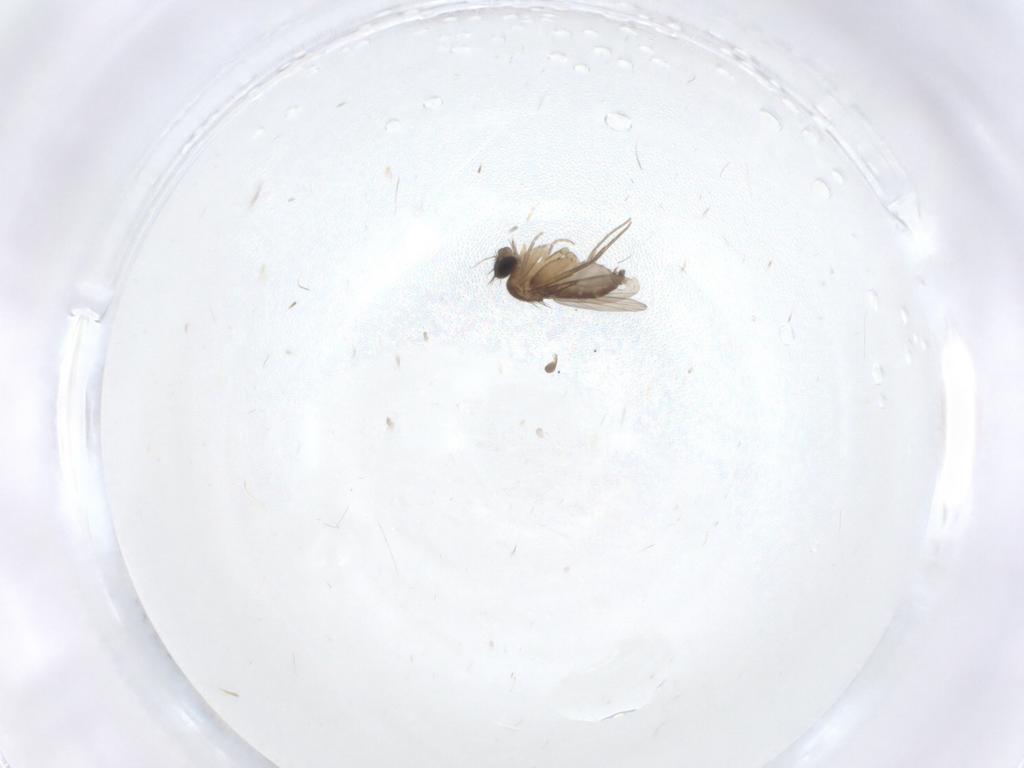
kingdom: Animalia
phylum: Arthropoda
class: Insecta
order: Diptera
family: Phoridae
